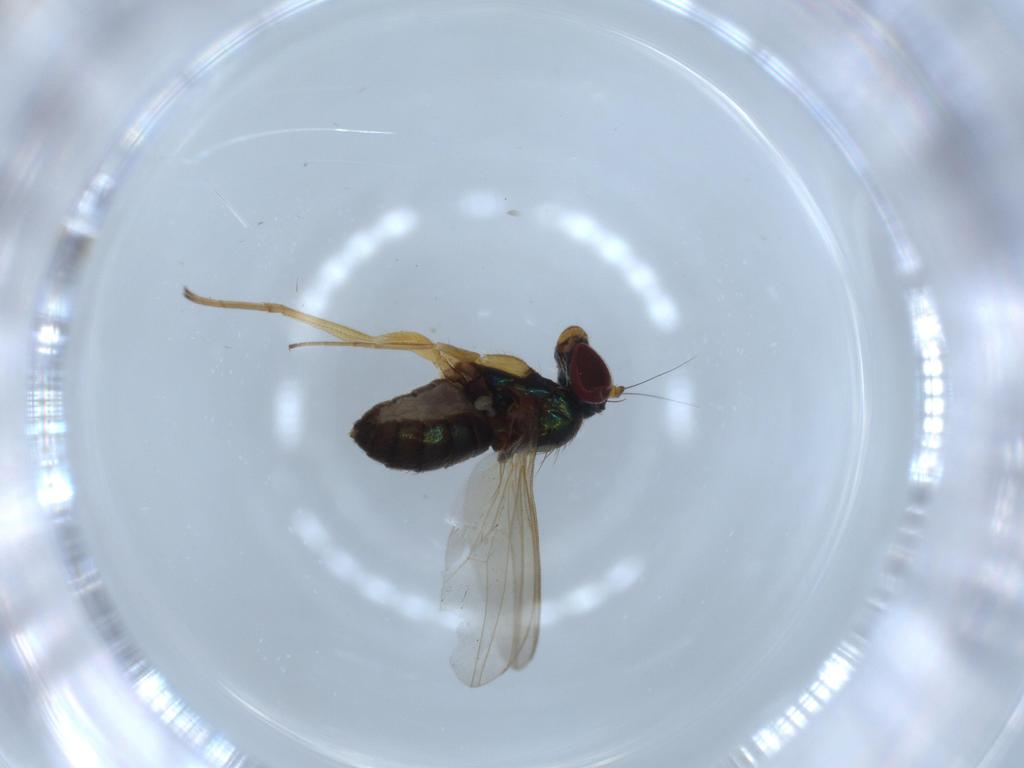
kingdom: Animalia
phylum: Arthropoda
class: Insecta
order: Diptera
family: Dolichopodidae
